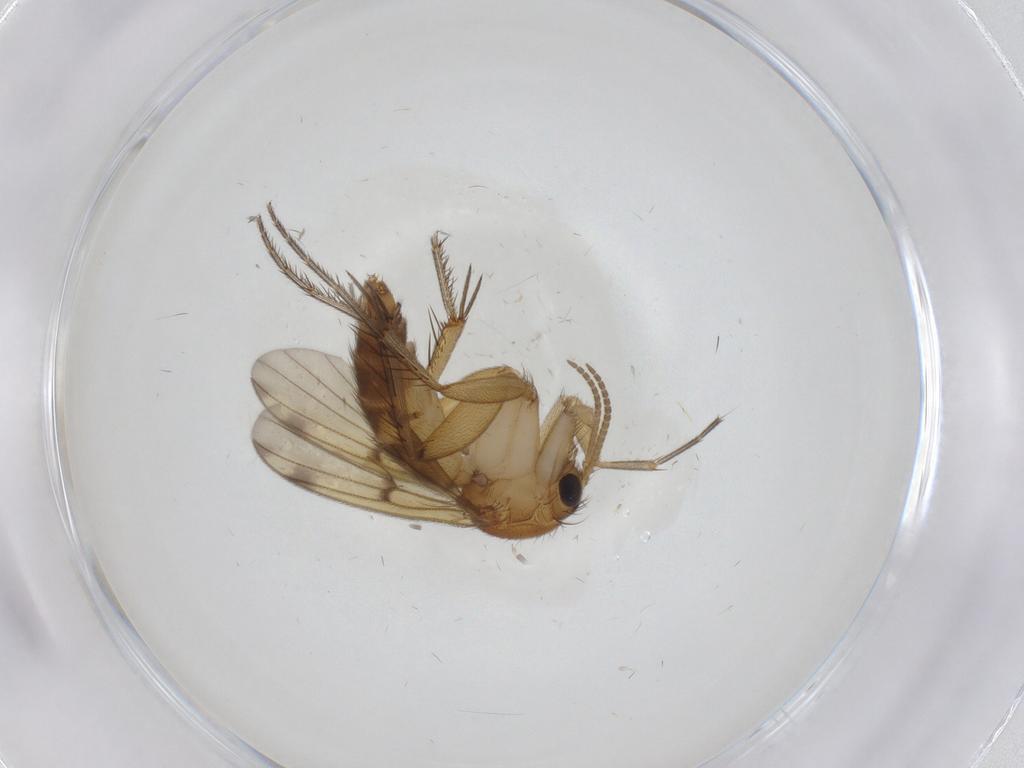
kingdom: Animalia
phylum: Arthropoda
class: Insecta
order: Diptera
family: Mycetophilidae
